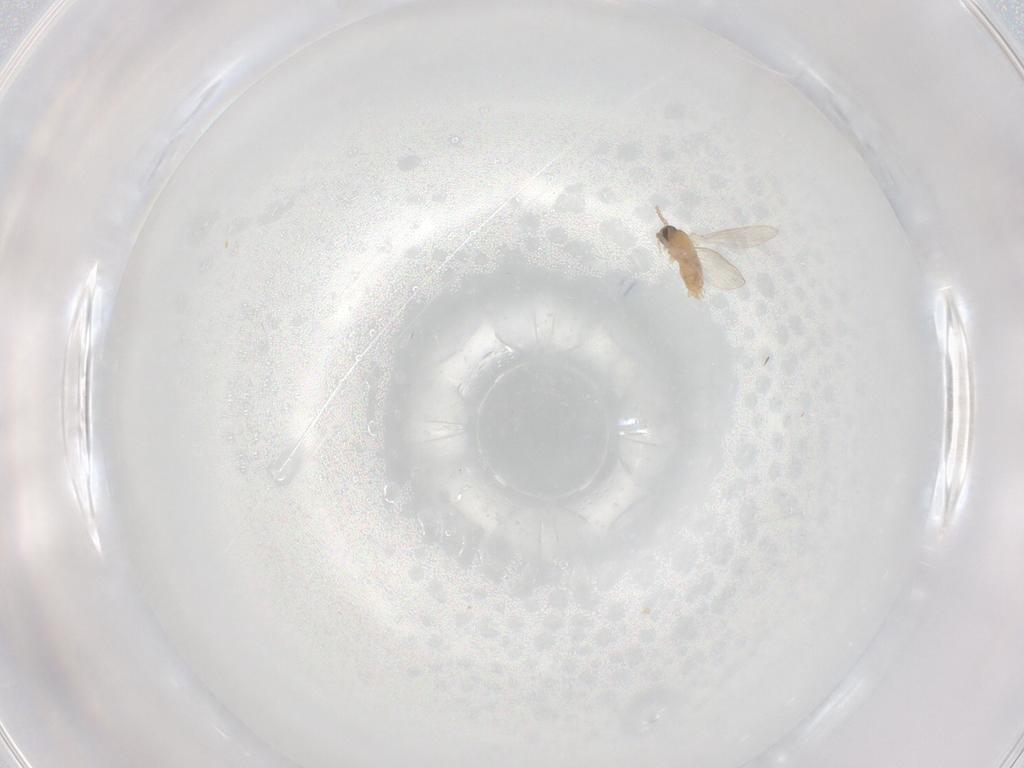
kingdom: Animalia
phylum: Arthropoda
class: Insecta
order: Diptera
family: Psychodidae
